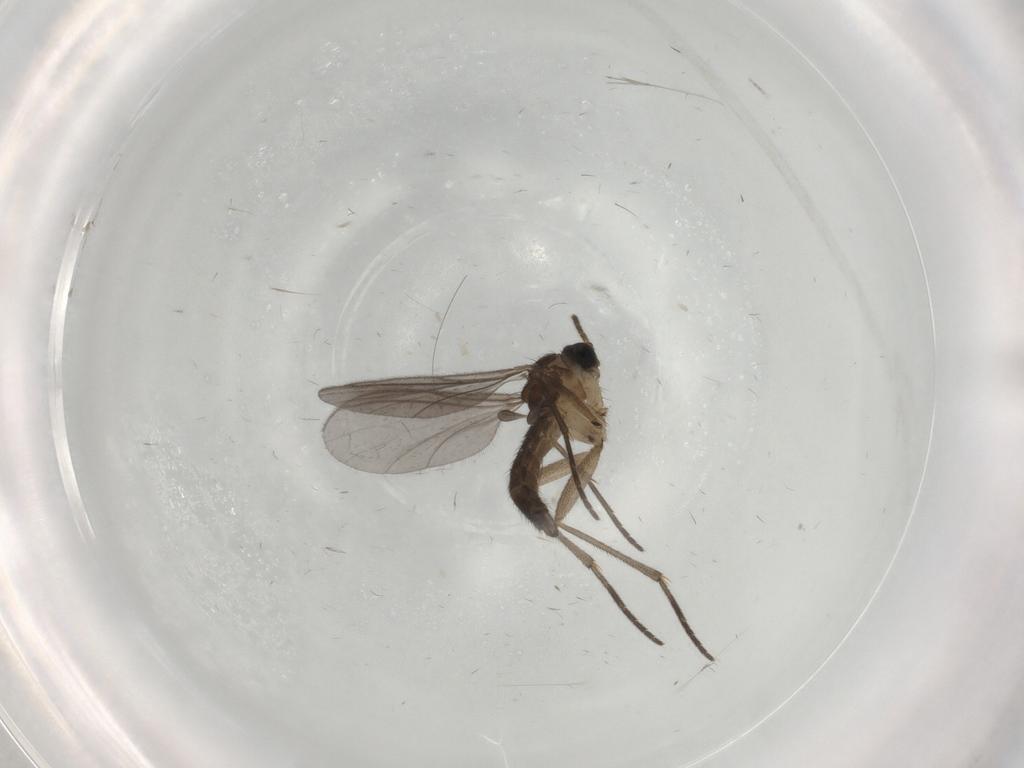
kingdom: Animalia
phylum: Arthropoda
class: Insecta
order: Diptera
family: Sciaridae
